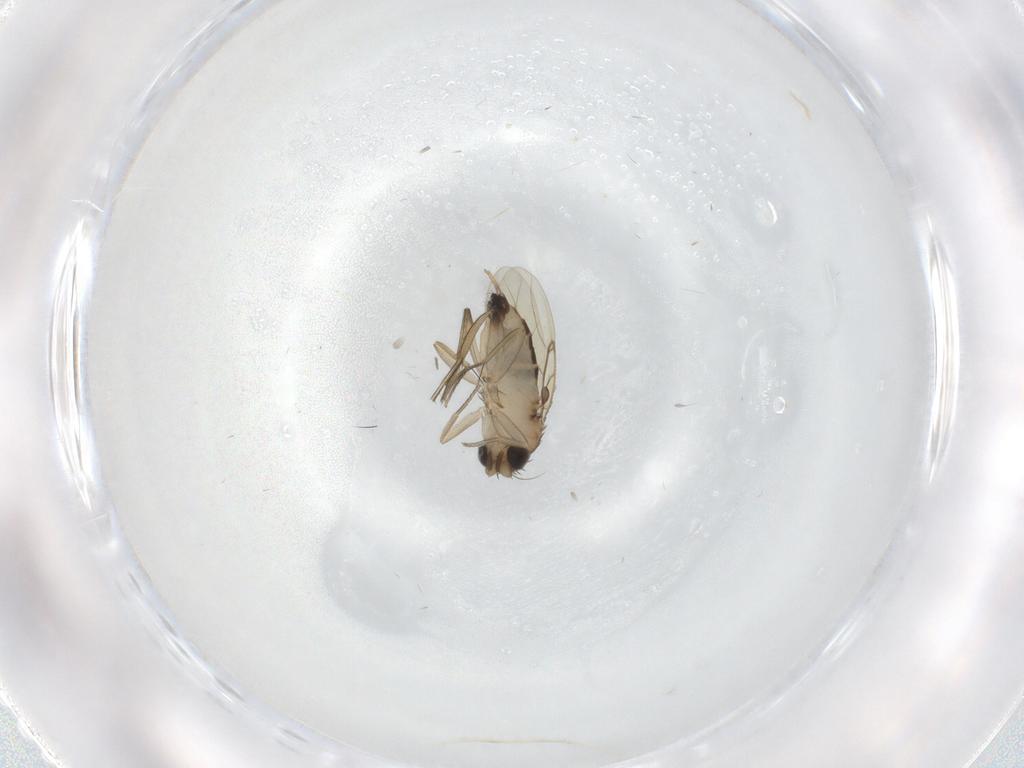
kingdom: Animalia
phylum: Arthropoda
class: Insecta
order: Diptera
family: Phoridae
